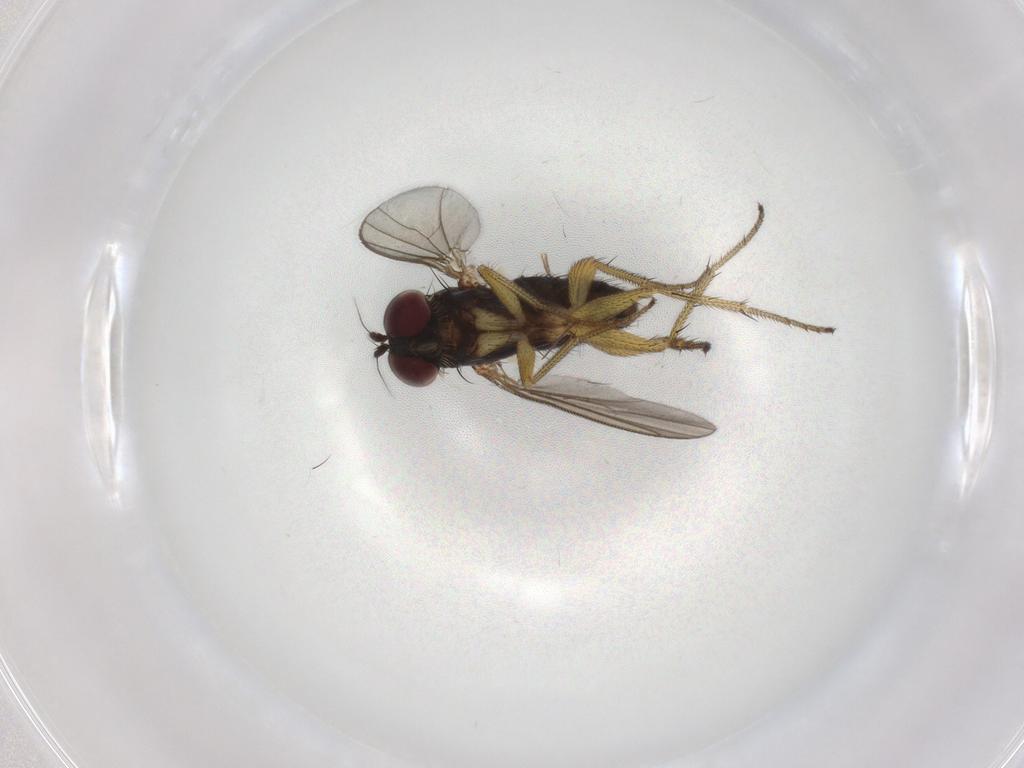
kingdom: Animalia
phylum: Arthropoda
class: Insecta
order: Diptera
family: Dolichopodidae
